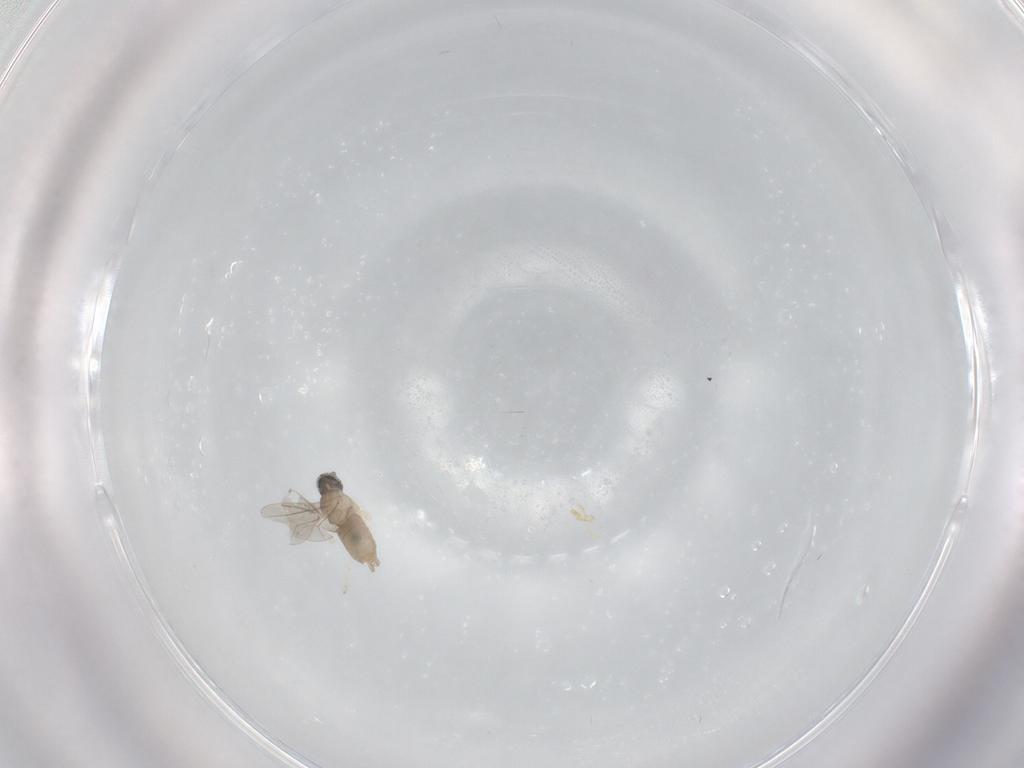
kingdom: Animalia
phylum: Arthropoda
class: Insecta
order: Diptera
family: Cecidomyiidae
